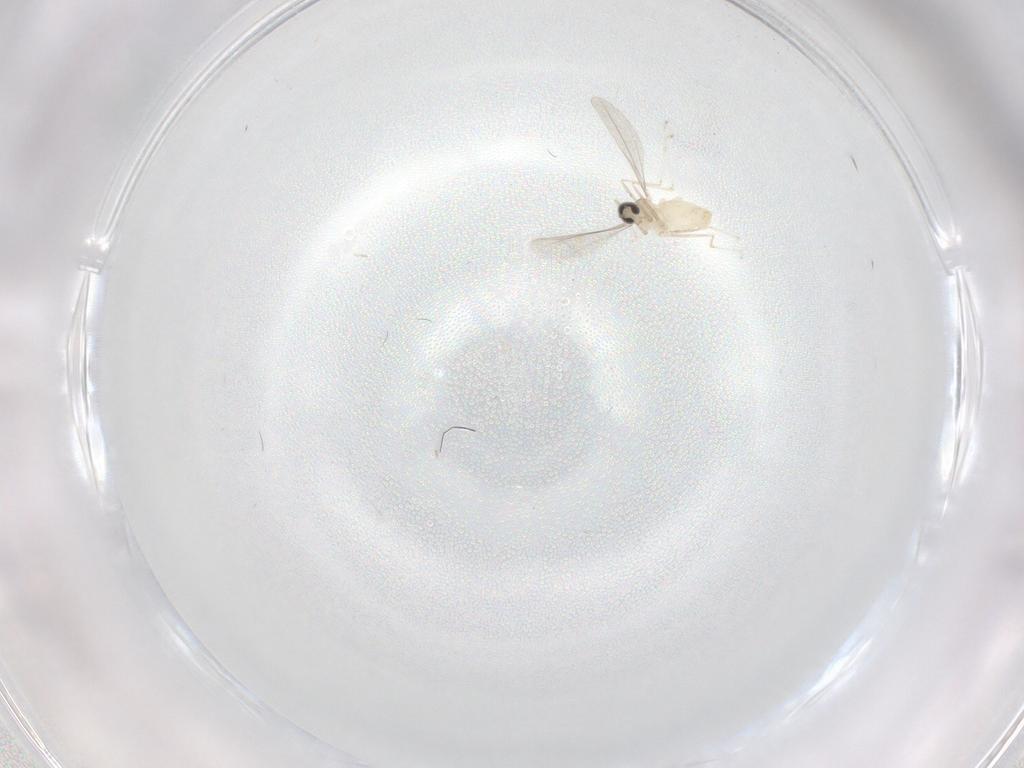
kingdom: Animalia
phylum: Arthropoda
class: Insecta
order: Diptera
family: Cecidomyiidae
